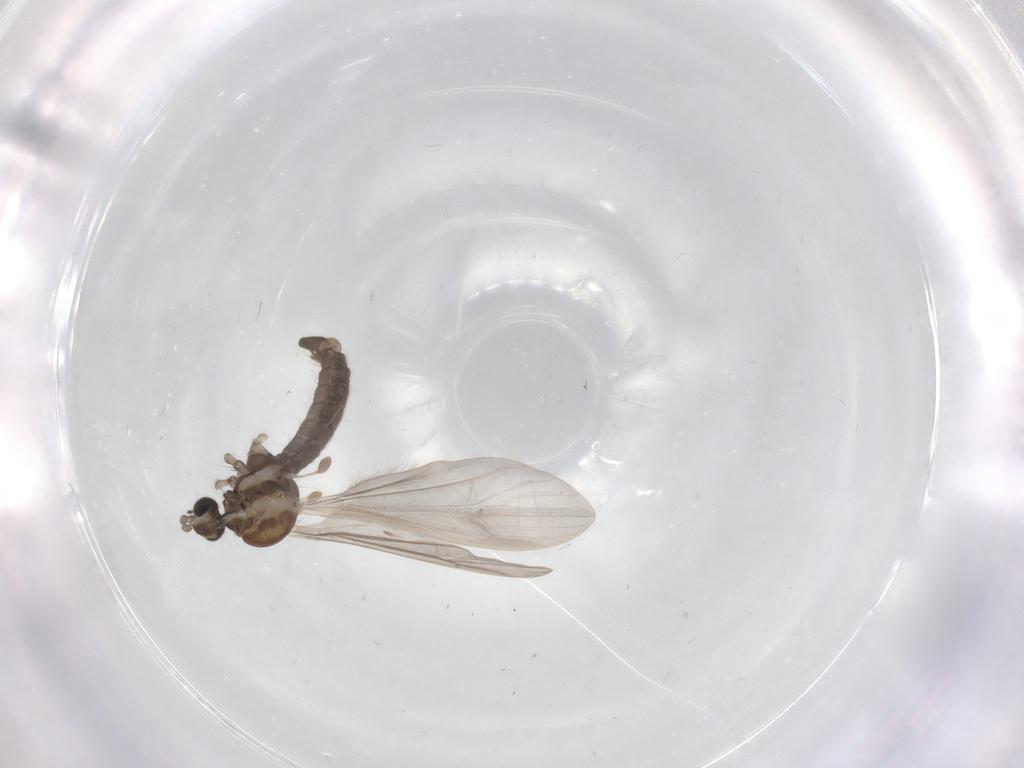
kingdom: Animalia
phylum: Arthropoda
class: Insecta
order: Diptera
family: Limoniidae
